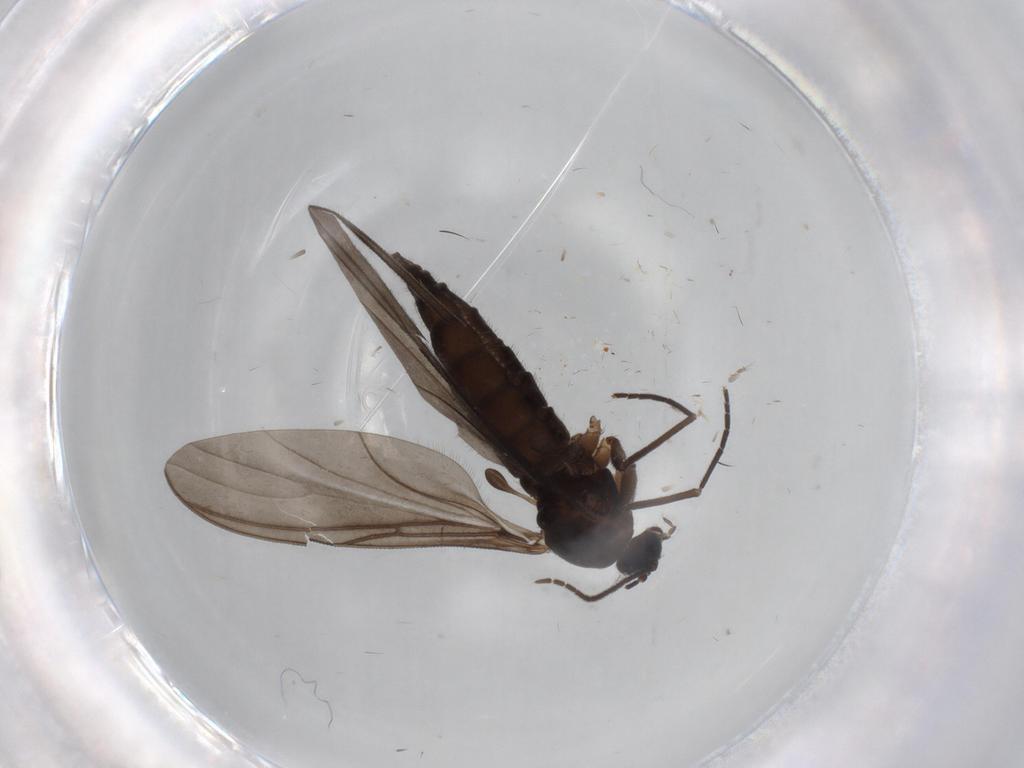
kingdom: Animalia
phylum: Arthropoda
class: Insecta
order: Diptera
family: Sciaridae
